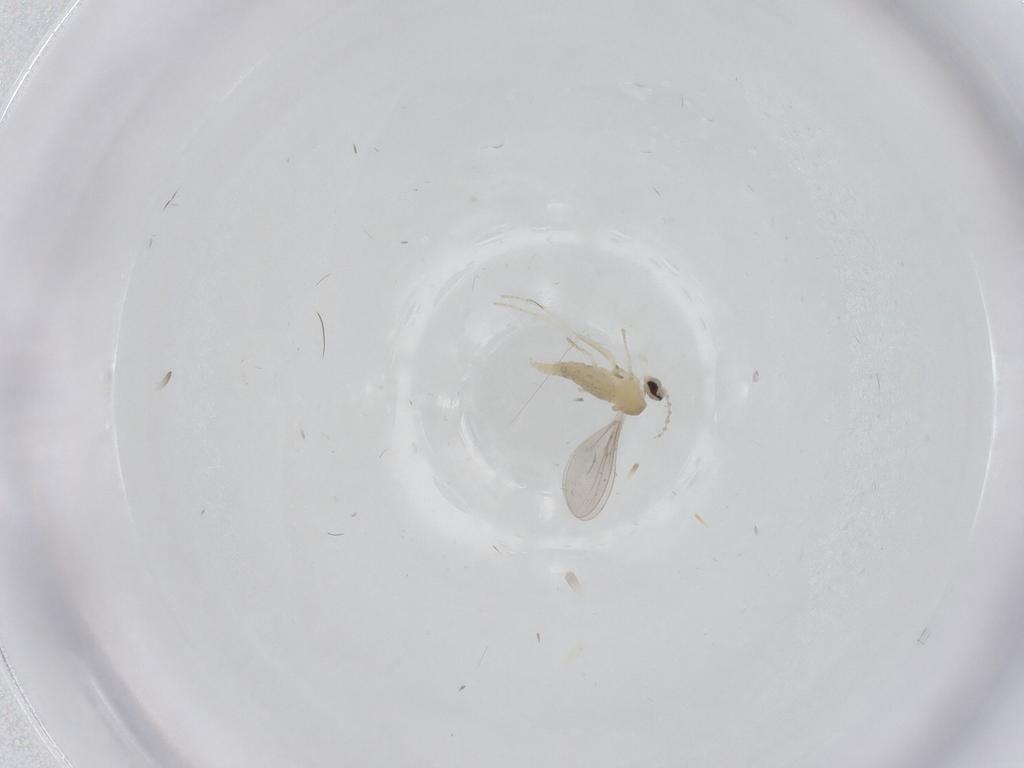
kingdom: Animalia
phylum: Arthropoda
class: Insecta
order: Diptera
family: Cecidomyiidae
